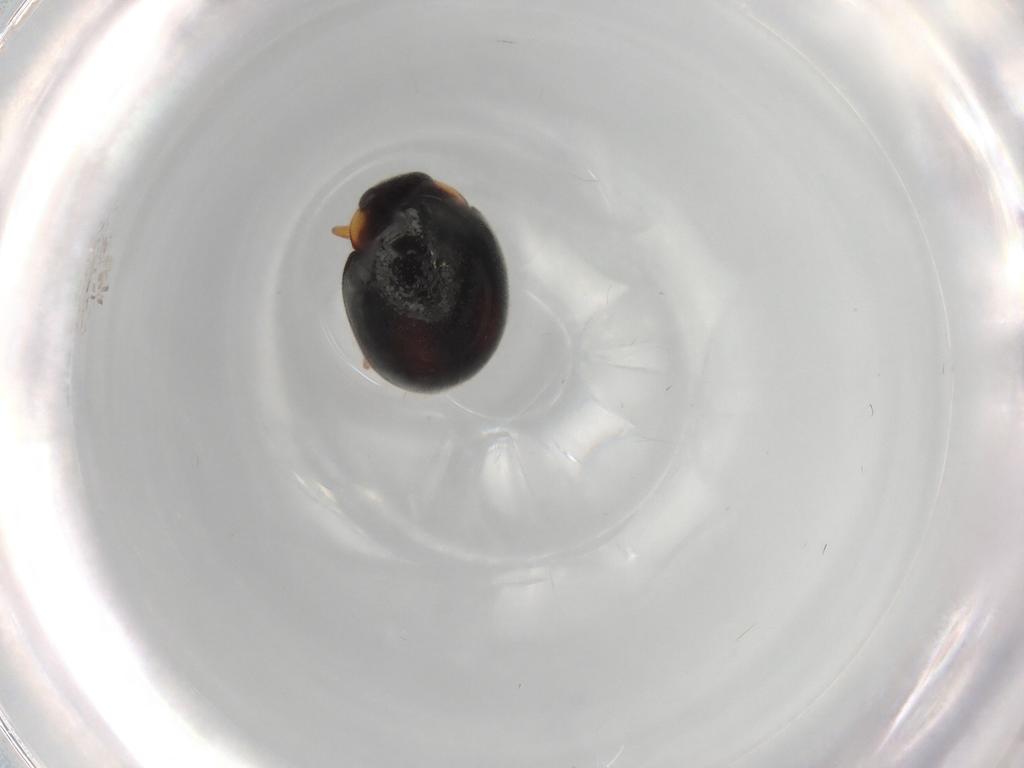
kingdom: Animalia
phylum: Arthropoda
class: Insecta
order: Coleoptera
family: Coccinellidae
